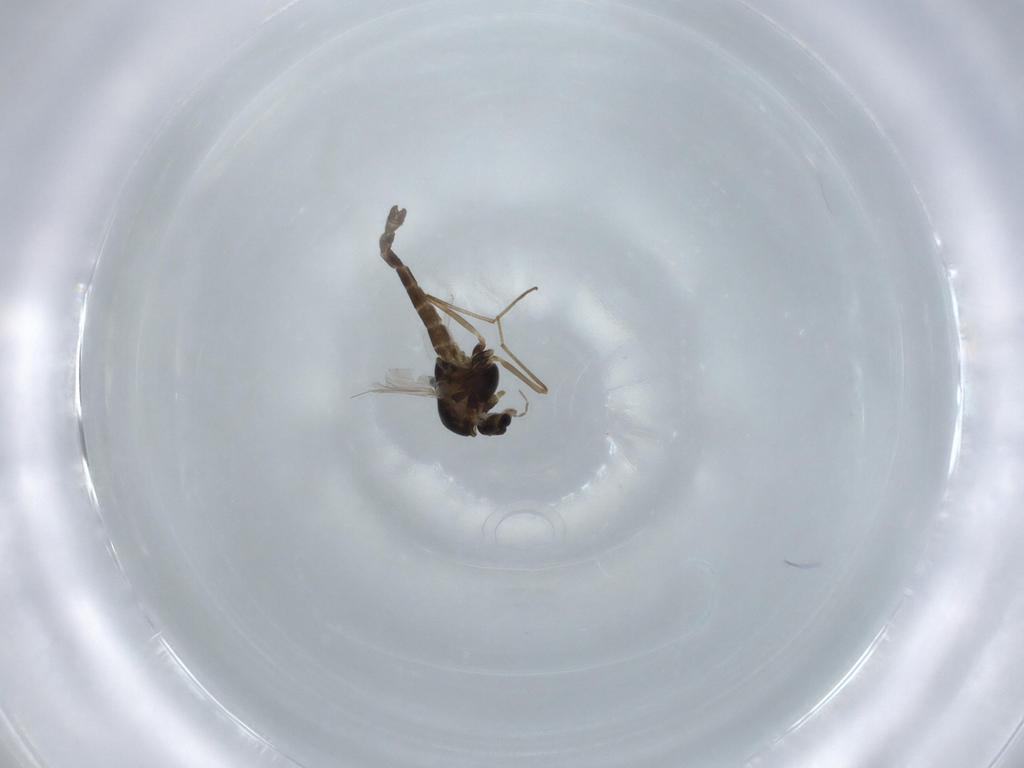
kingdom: Animalia
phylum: Arthropoda
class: Insecta
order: Diptera
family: Chironomidae
